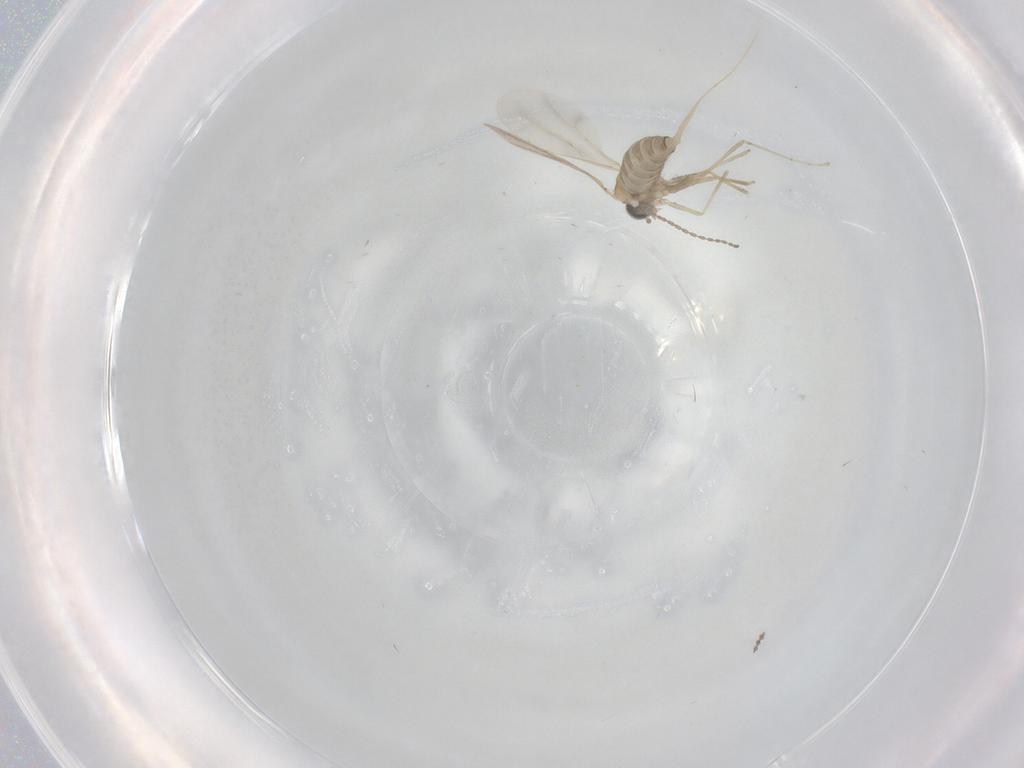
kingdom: Animalia
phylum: Arthropoda
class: Insecta
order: Diptera
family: Cecidomyiidae
